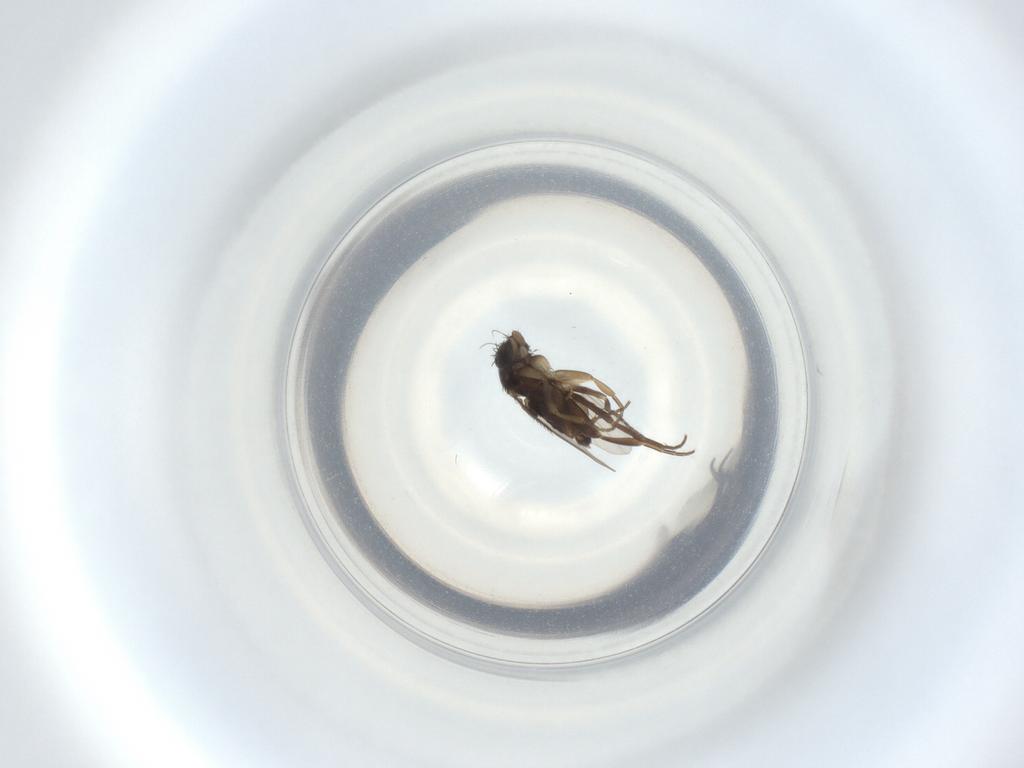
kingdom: Animalia
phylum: Arthropoda
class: Insecta
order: Diptera
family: Phoridae
